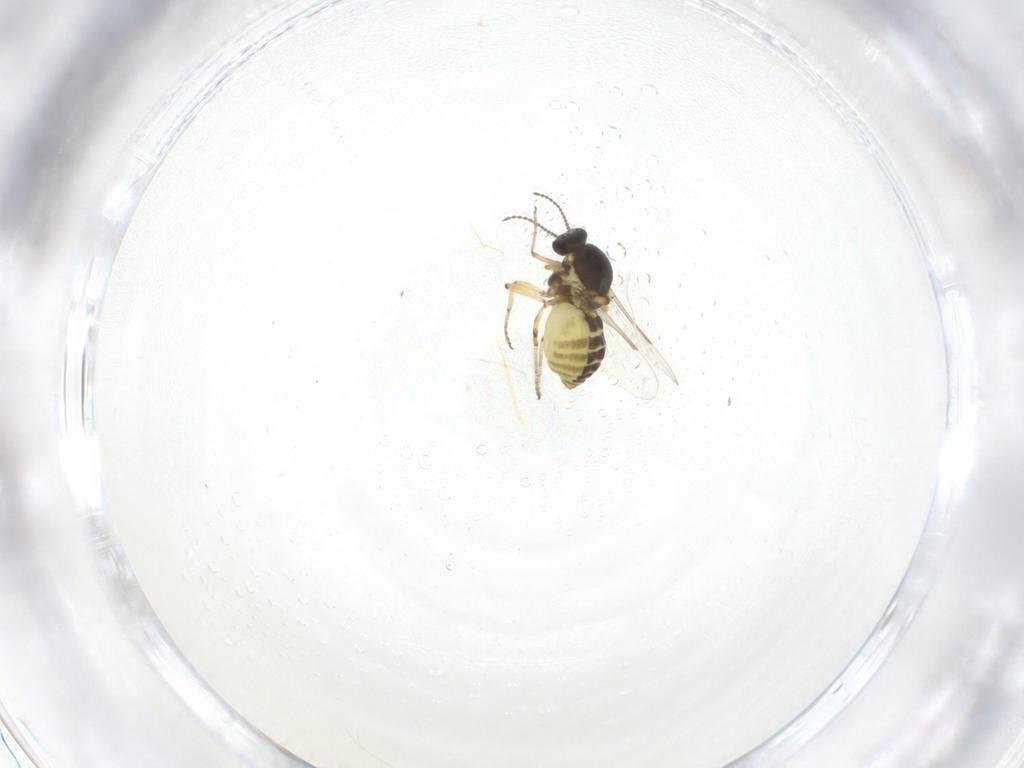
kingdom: Animalia
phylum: Arthropoda
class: Insecta
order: Diptera
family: Ceratopogonidae
